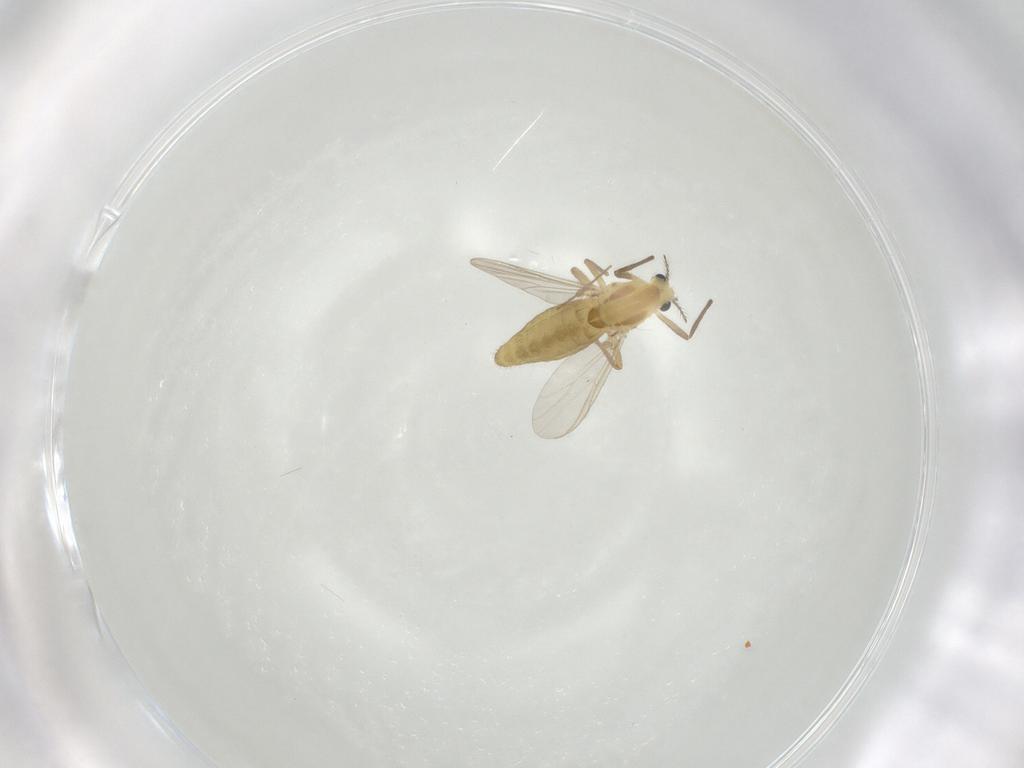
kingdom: Animalia
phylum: Arthropoda
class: Insecta
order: Diptera
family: Chironomidae
